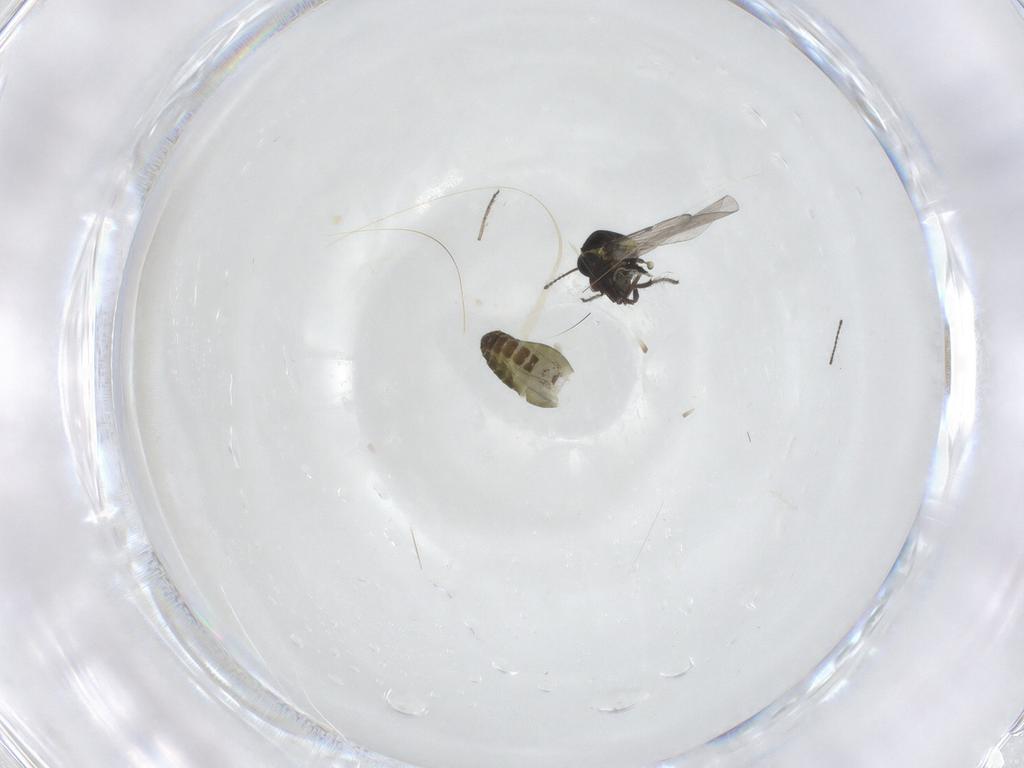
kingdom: Animalia
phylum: Arthropoda
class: Insecta
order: Diptera
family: Ceratopogonidae
